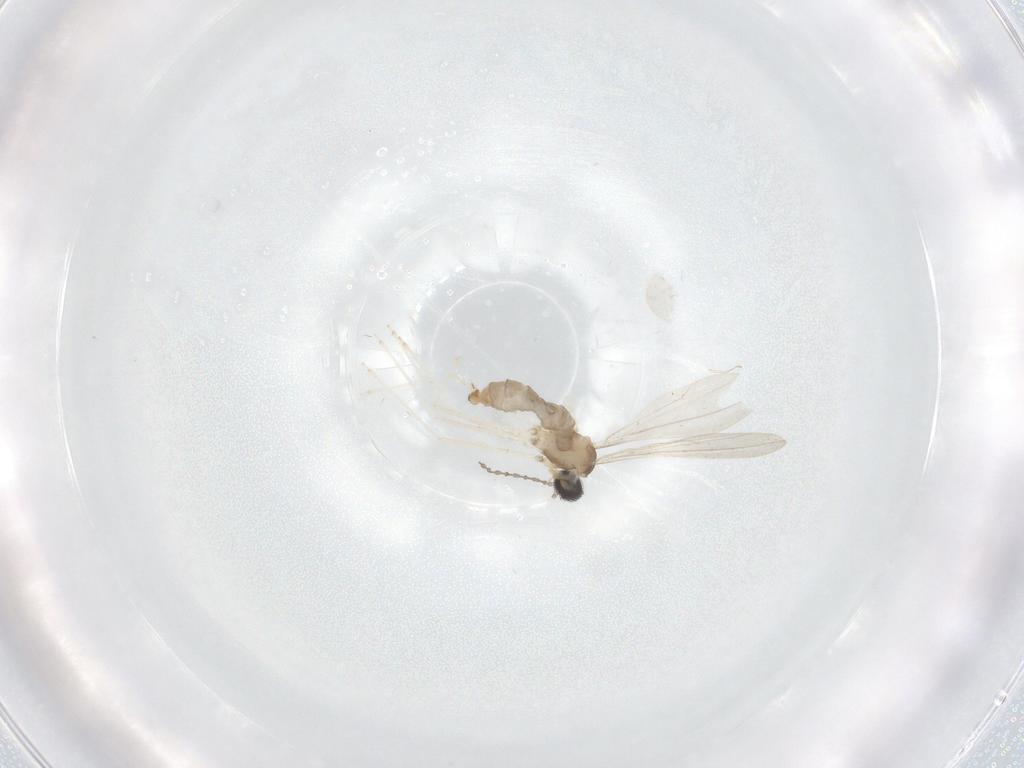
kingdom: Animalia
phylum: Arthropoda
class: Insecta
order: Diptera
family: Cecidomyiidae
